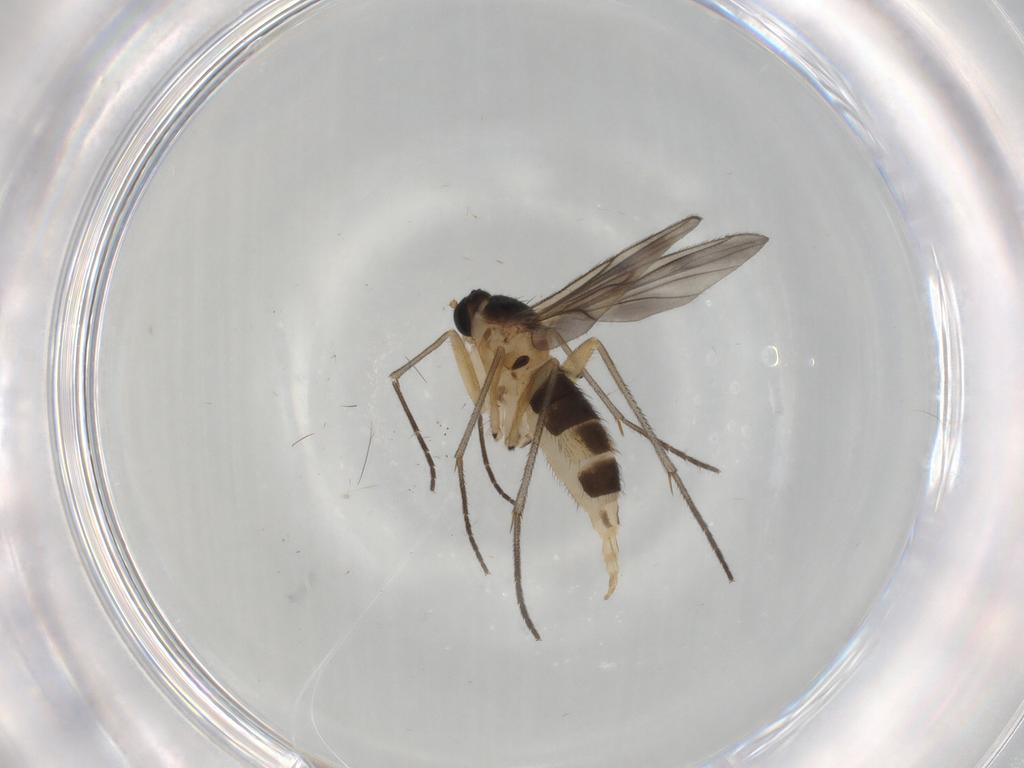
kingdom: Animalia
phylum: Arthropoda
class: Insecta
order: Diptera
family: Sciaridae
